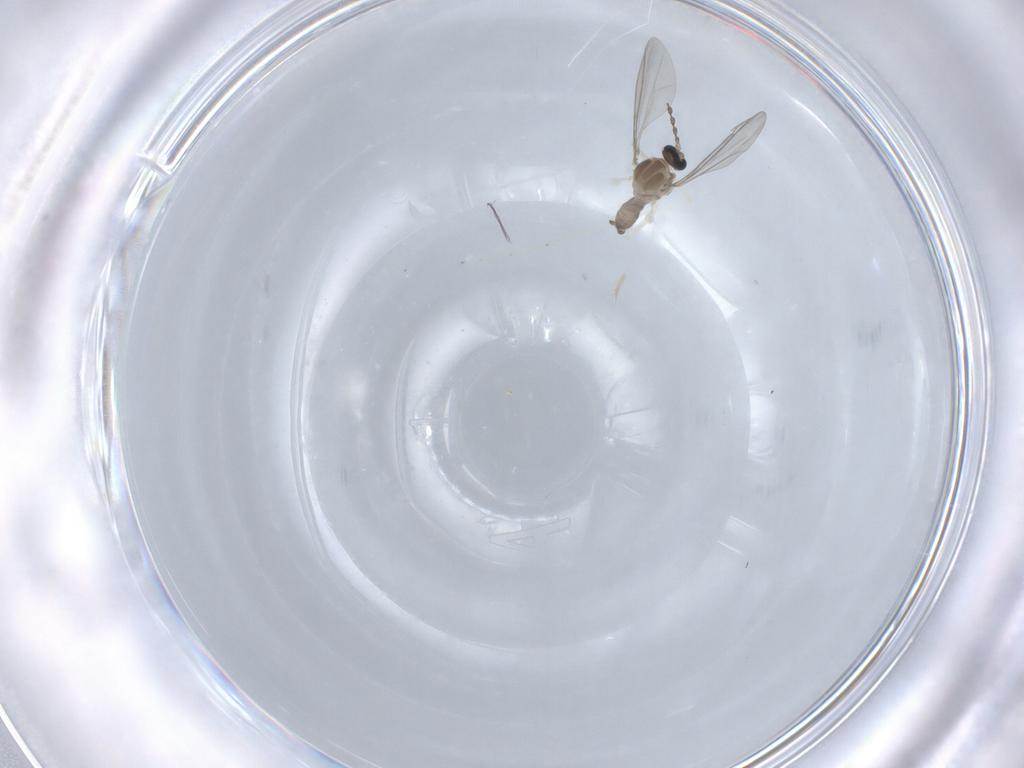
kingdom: Animalia
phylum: Arthropoda
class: Insecta
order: Diptera
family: Cecidomyiidae
